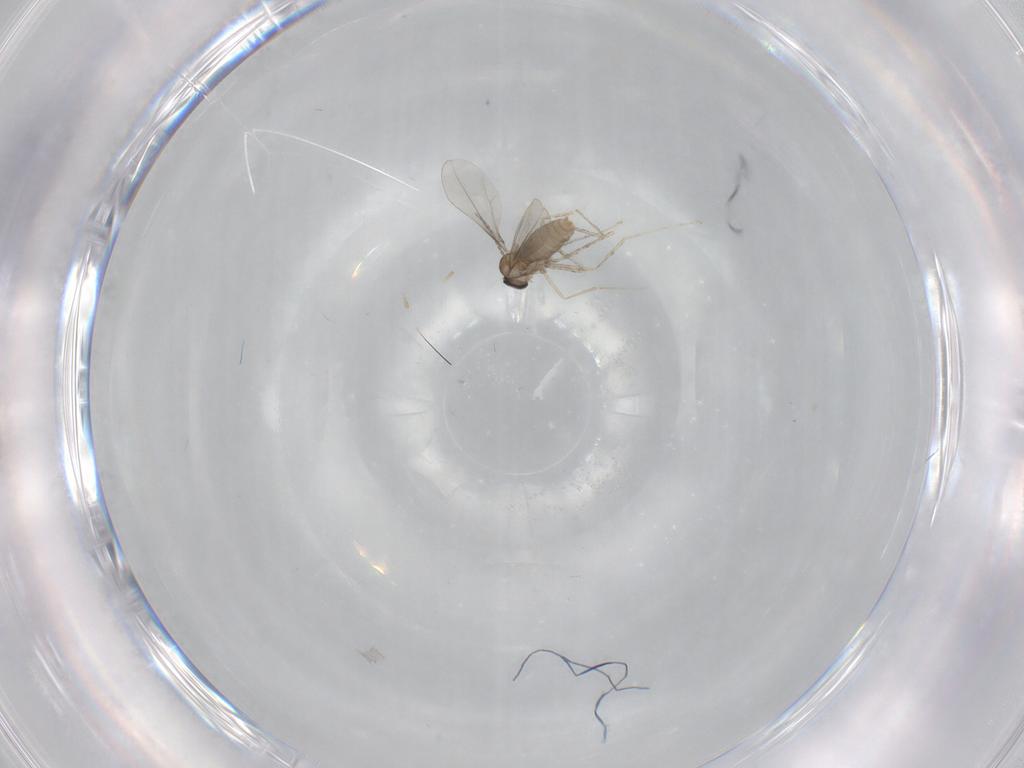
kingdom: Animalia
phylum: Arthropoda
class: Insecta
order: Diptera
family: Cecidomyiidae
